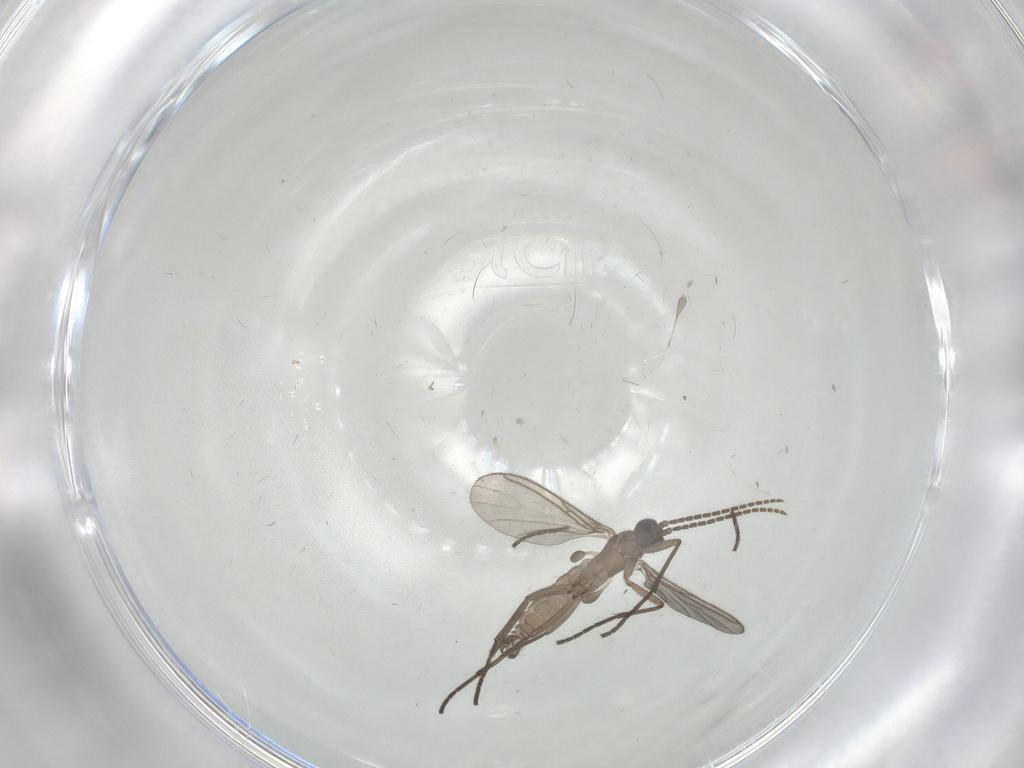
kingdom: Animalia
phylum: Arthropoda
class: Insecta
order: Diptera
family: Sciaridae
